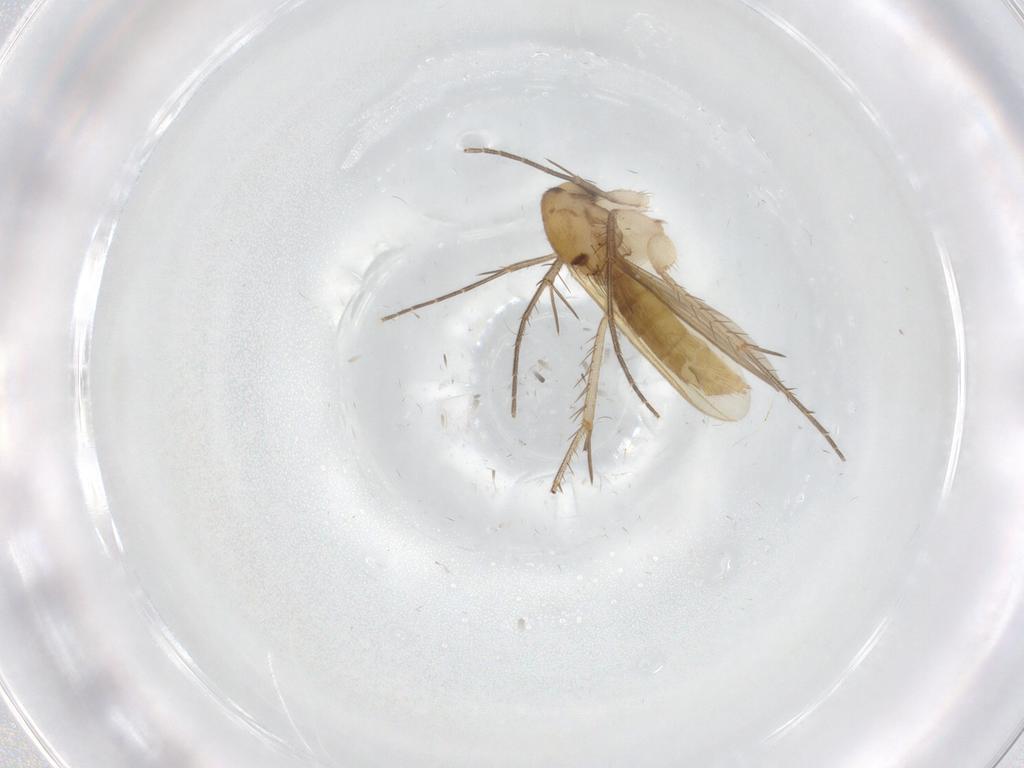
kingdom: Animalia
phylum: Arthropoda
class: Insecta
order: Diptera
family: Mycetophilidae
